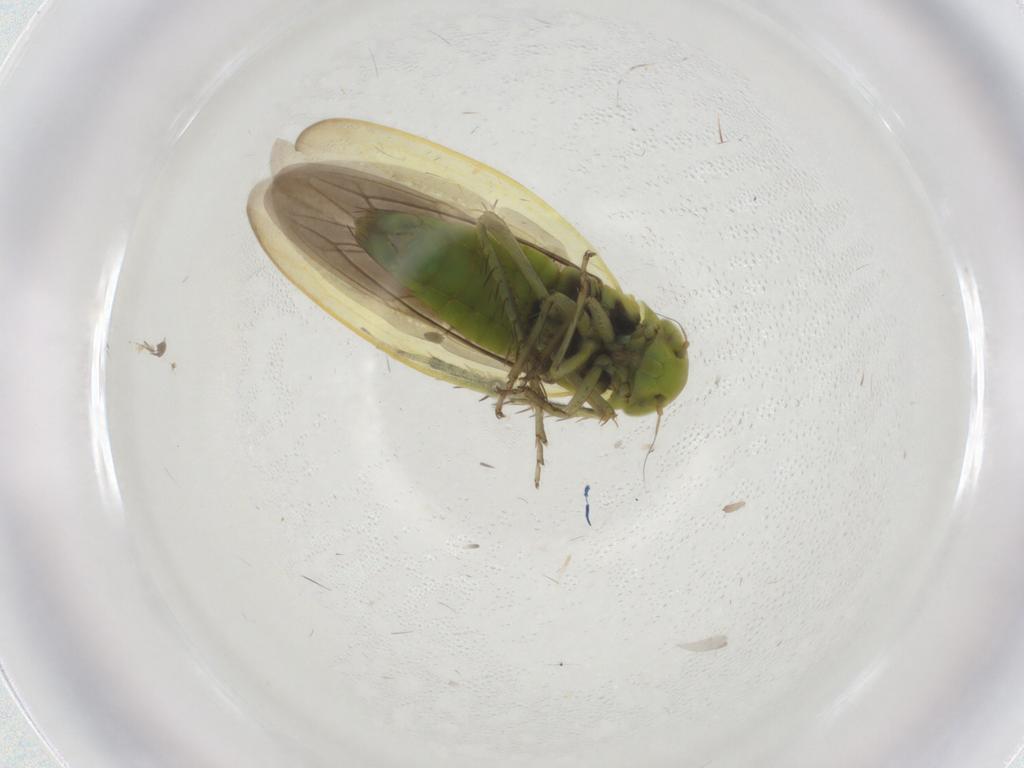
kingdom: Animalia
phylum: Arthropoda
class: Insecta
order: Hemiptera
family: Cicadellidae
